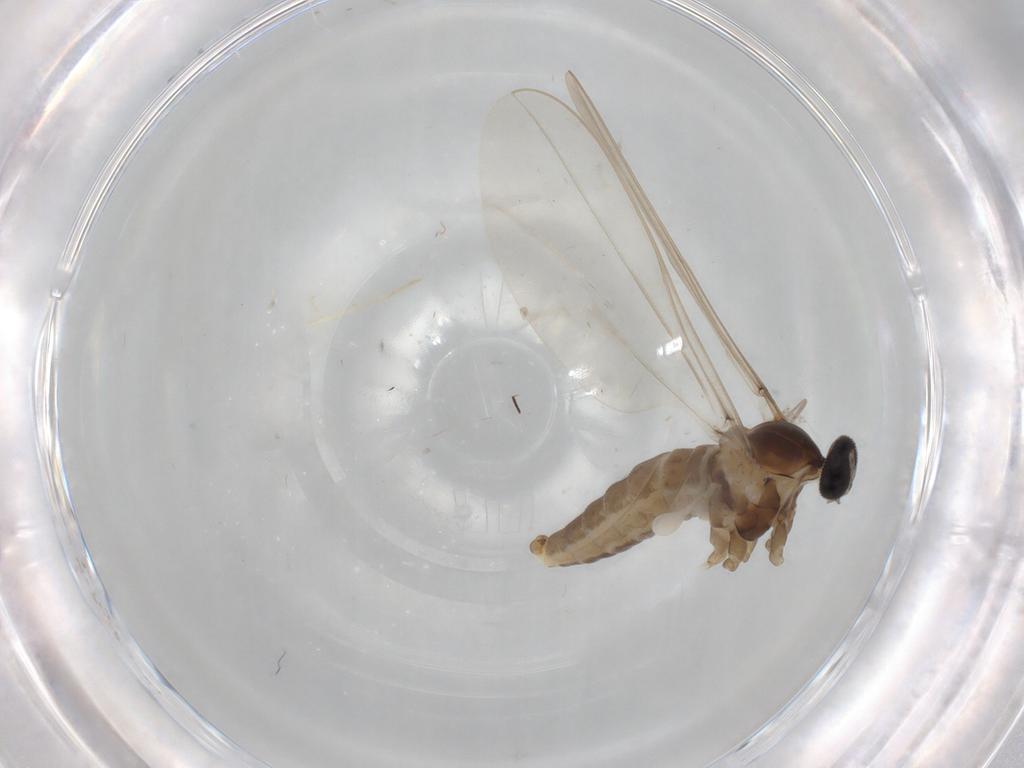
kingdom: Animalia
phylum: Arthropoda
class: Insecta
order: Diptera
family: Cecidomyiidae
